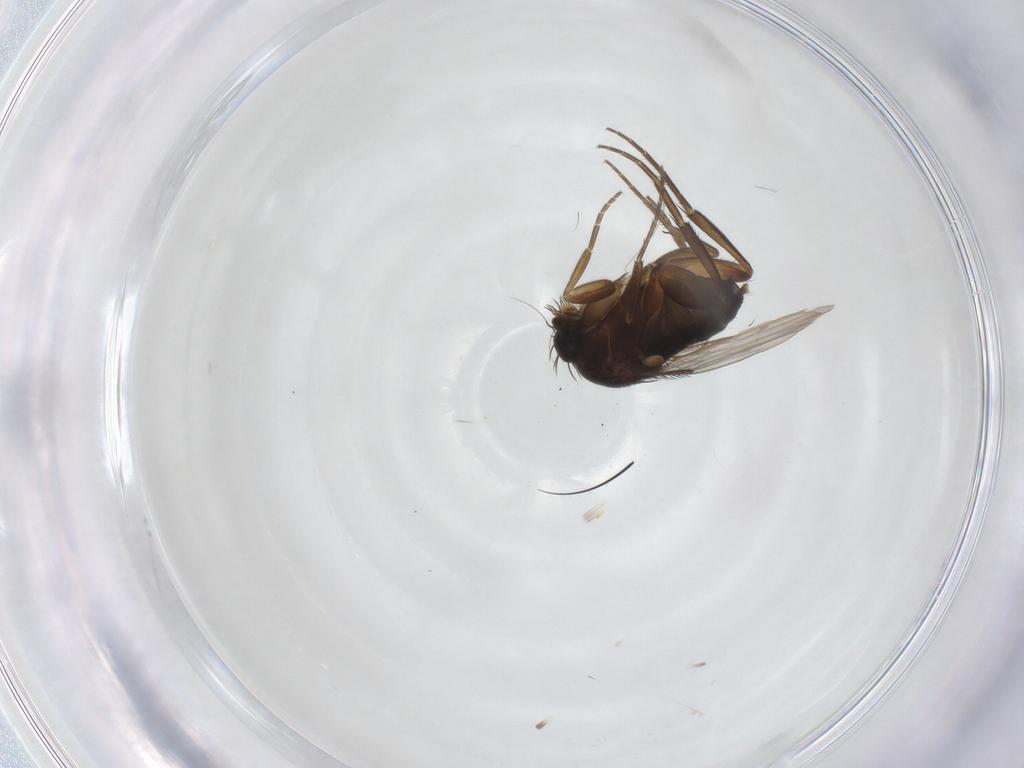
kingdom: Animalia
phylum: Arthropoda
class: Insecta
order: Diptera
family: Phoridae
